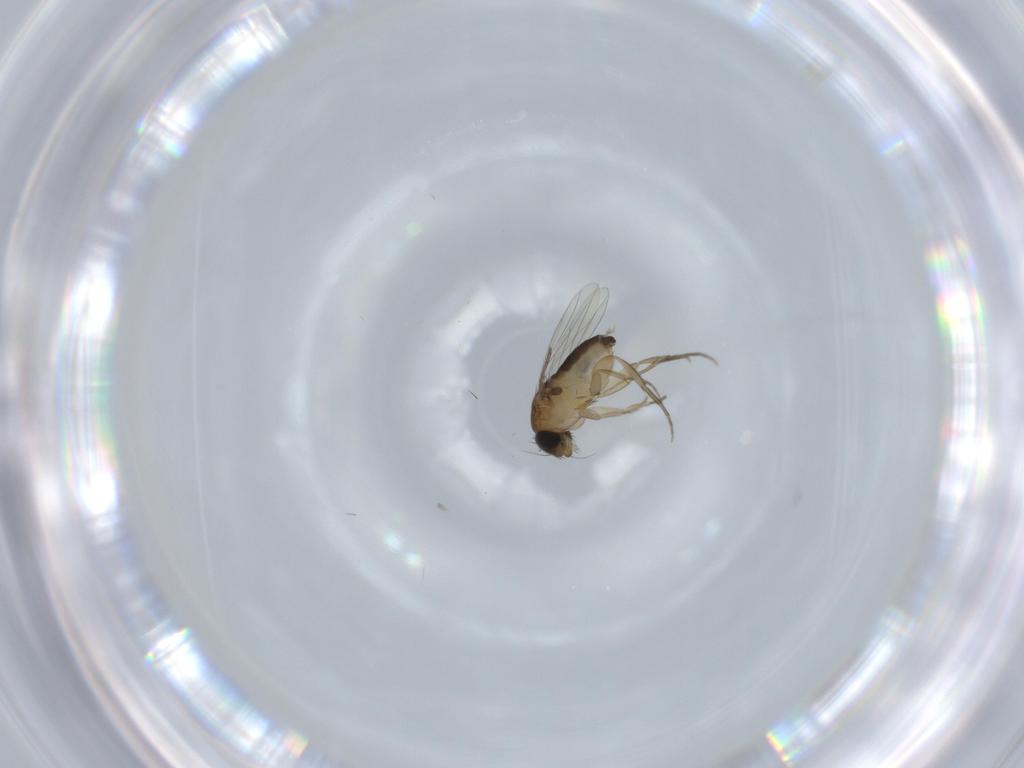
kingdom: Animalia
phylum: Arthropoda
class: Insecta
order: Diptera
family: Phoridae
